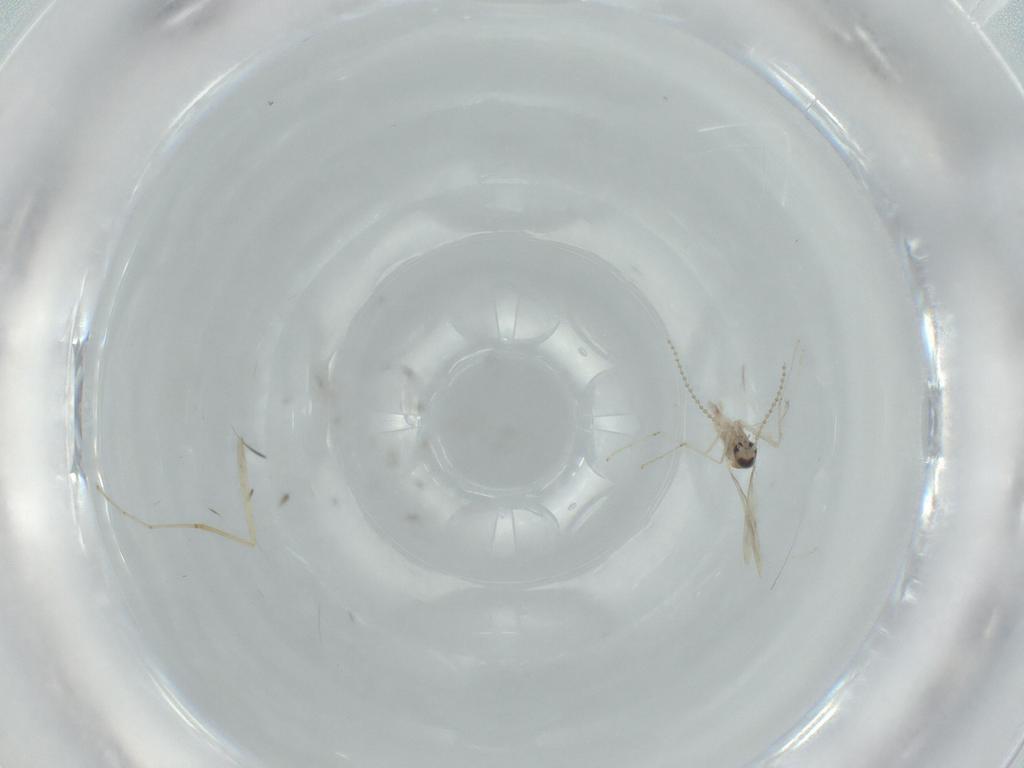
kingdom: Animalia
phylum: Arthropoda
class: Insecta
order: Diptera
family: Cecidomyiidae
